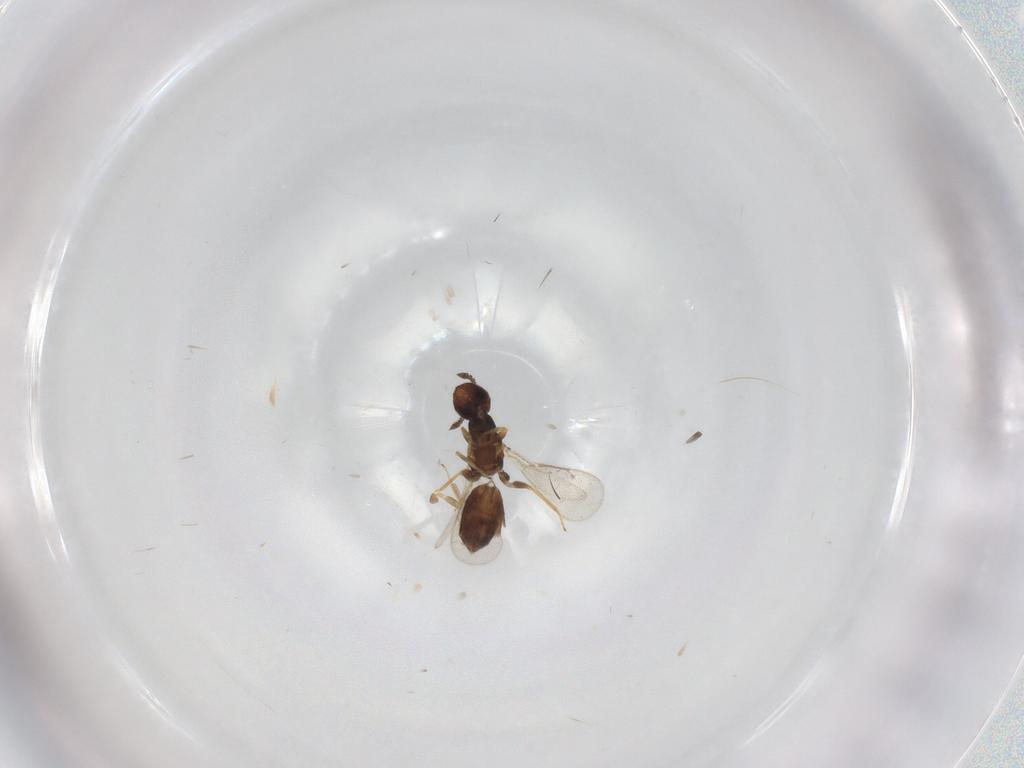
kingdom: Animalia
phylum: Arthropoda
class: Insecta
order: Hymenoptera
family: Eulophidae
